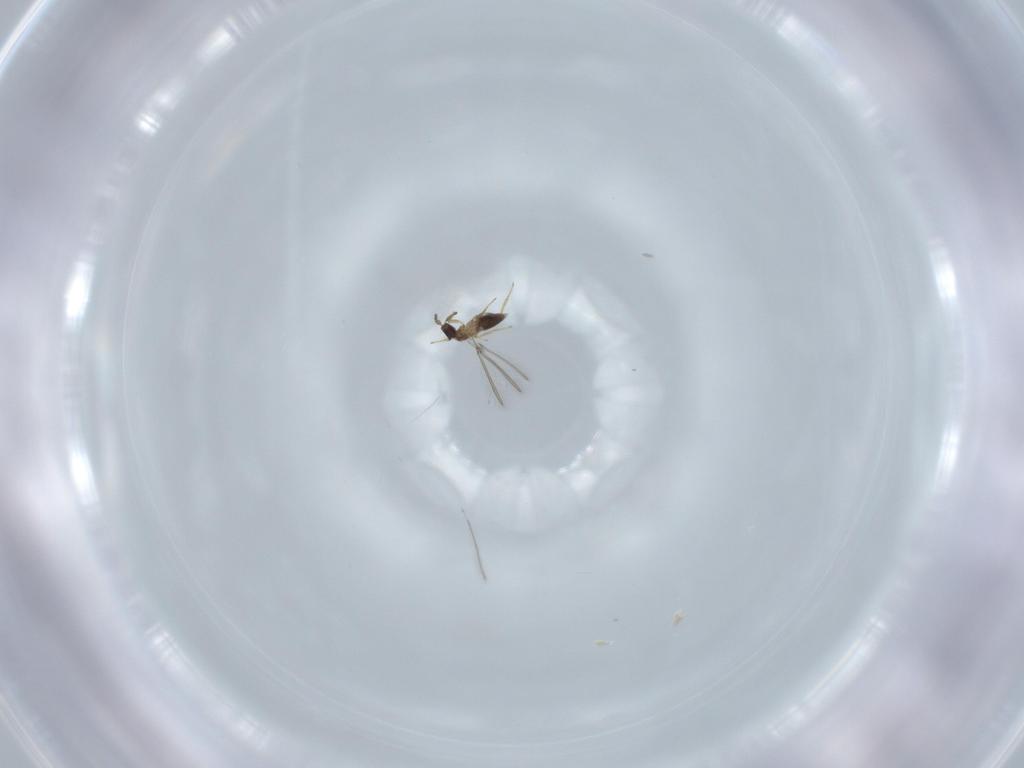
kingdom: Animalia
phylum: Arthropoda
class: Insecta
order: Hymenoptera
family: Mymaridae
